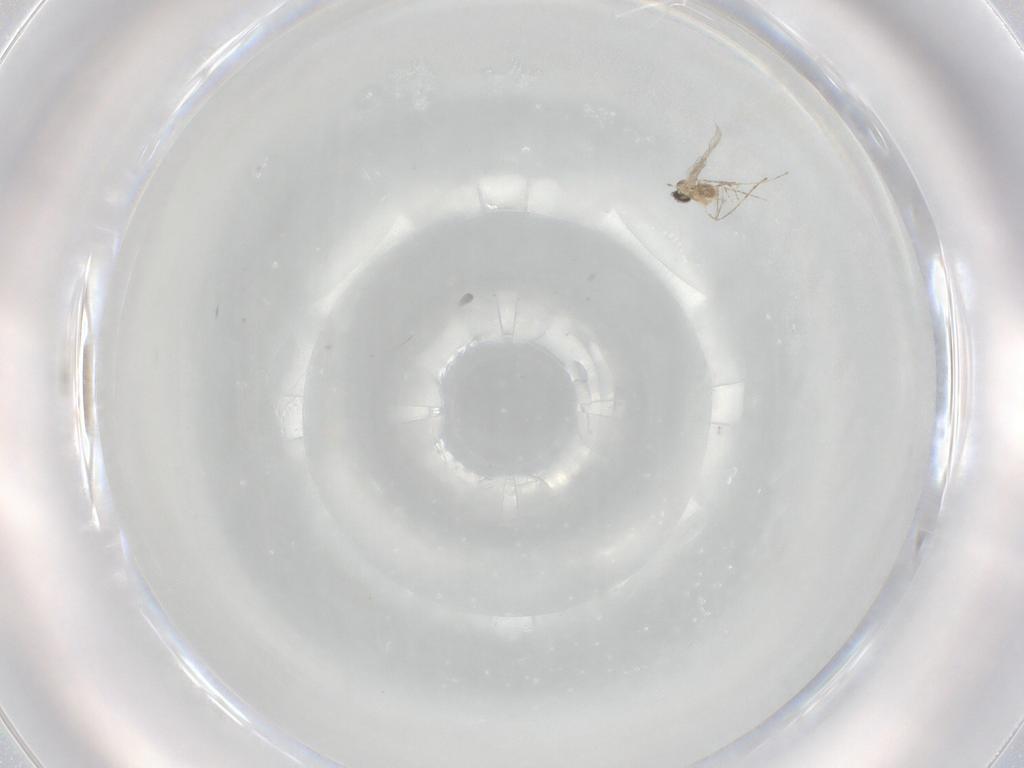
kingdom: Animalia
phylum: Arthropoda
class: Insecta
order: Diptera
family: Cecidomyiidae
